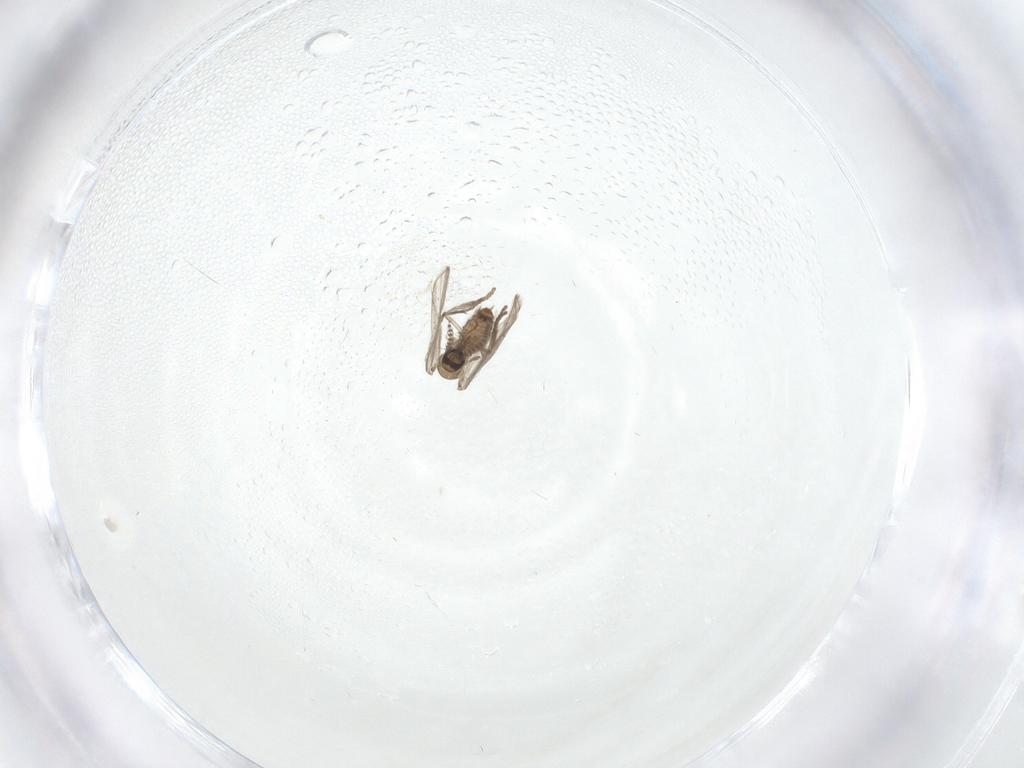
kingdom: Animalia
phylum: Arthropoda
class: Insecta
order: Diptera
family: Psychodidae
